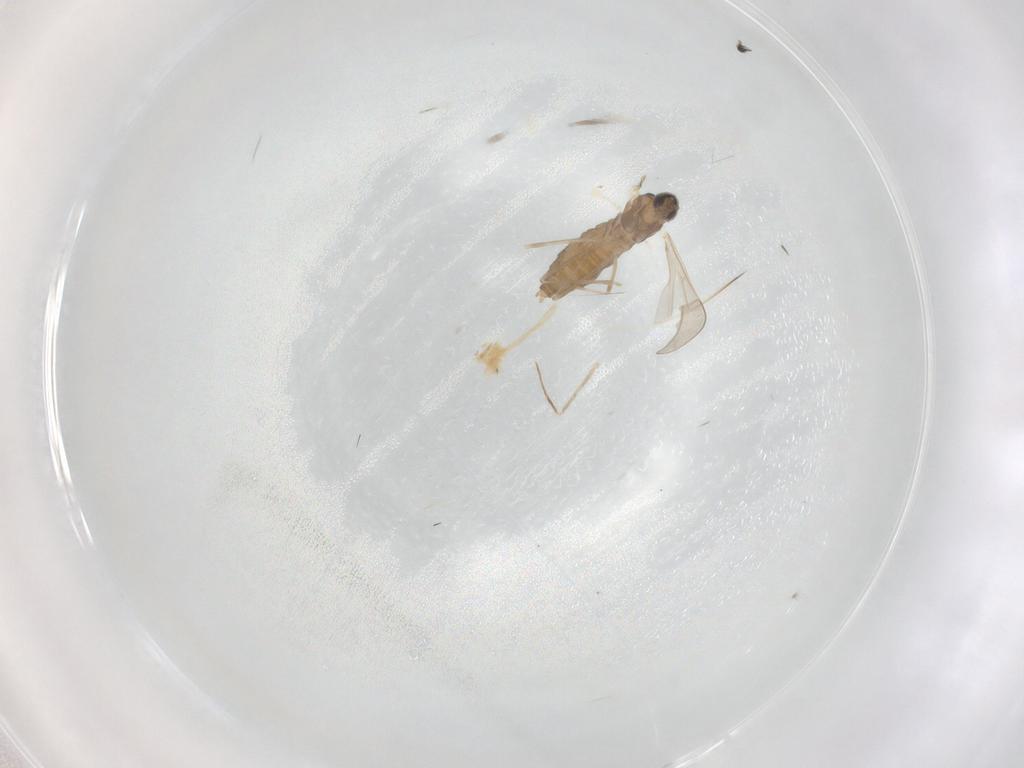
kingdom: Animalia
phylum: Arthropoda
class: Insecta
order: Diptera
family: Cecidomyiidae
